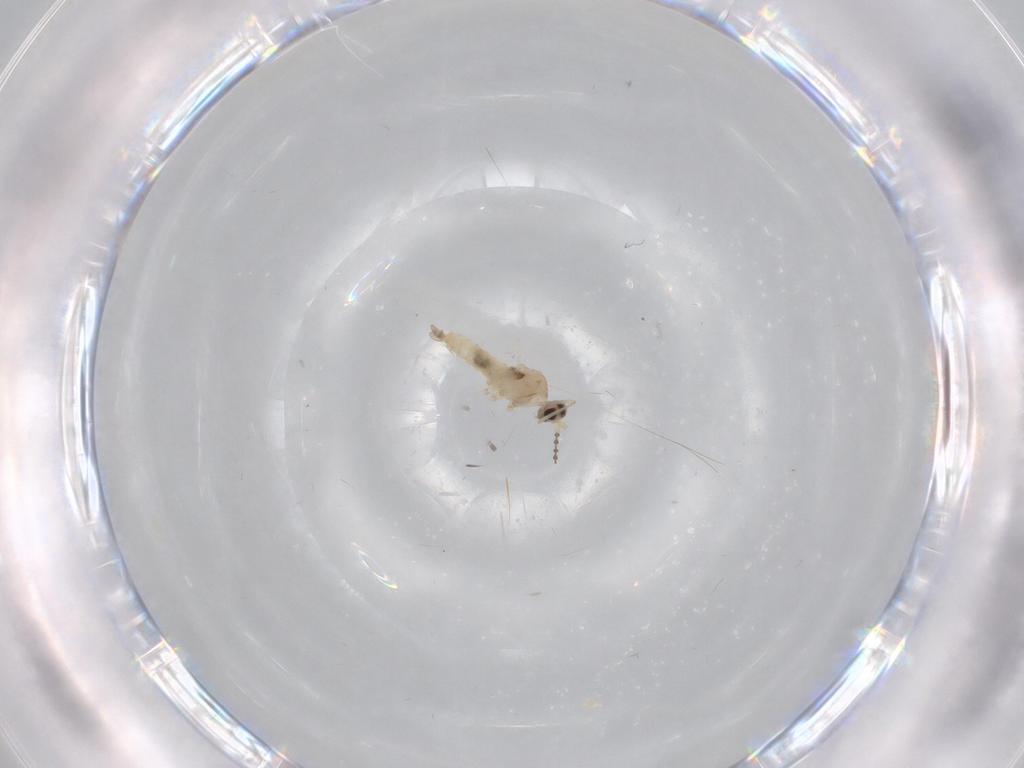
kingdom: Animalia
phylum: Arthropoda
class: Insecta
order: Diptera
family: Cecidomyiidae
